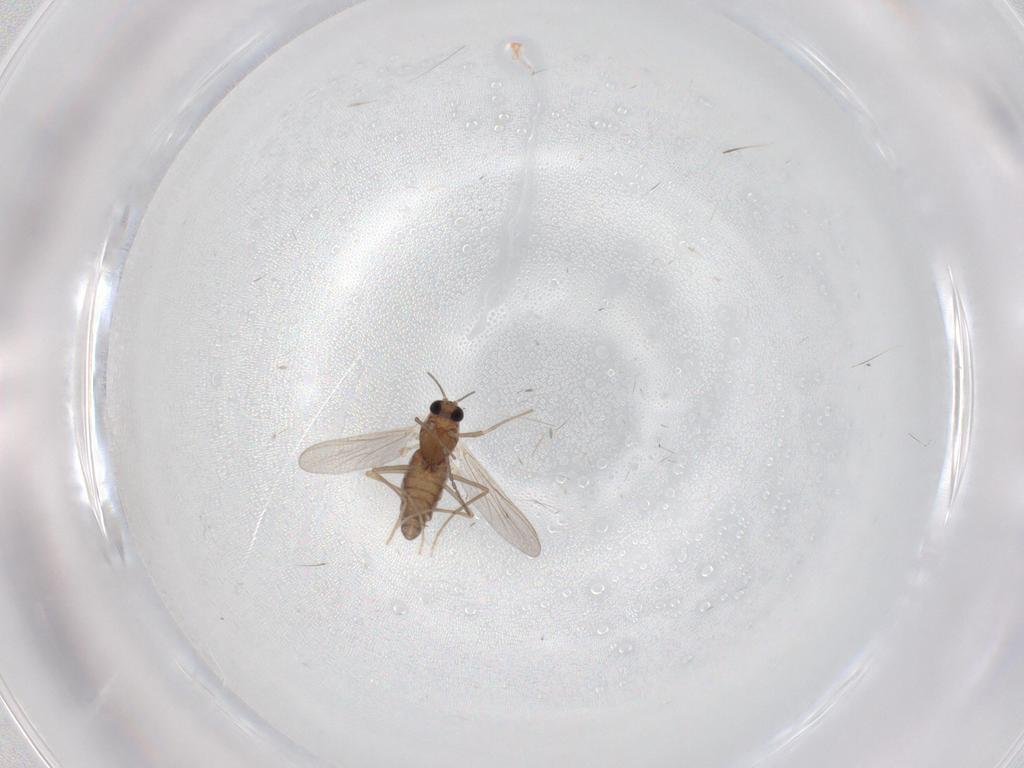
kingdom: Animalia
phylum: Arthropoda
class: Insecta
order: Diptera
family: Chironomidae
